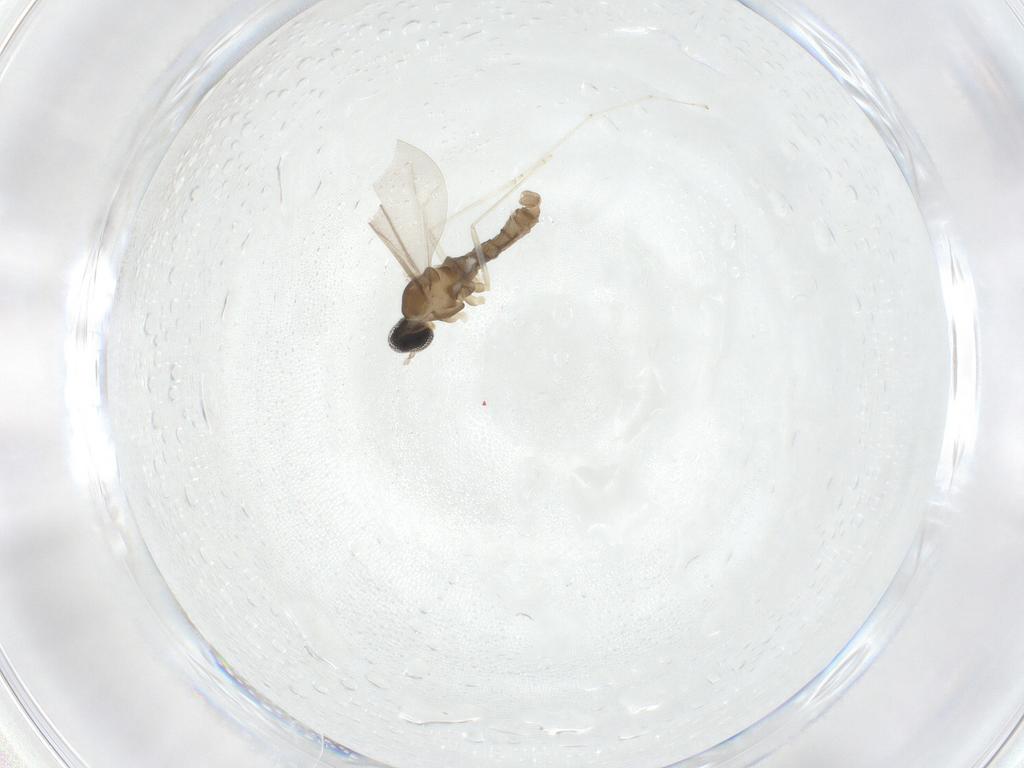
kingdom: Animalia
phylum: Arthropoda
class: Insecta
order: Diptera
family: Cecidomyiidae
